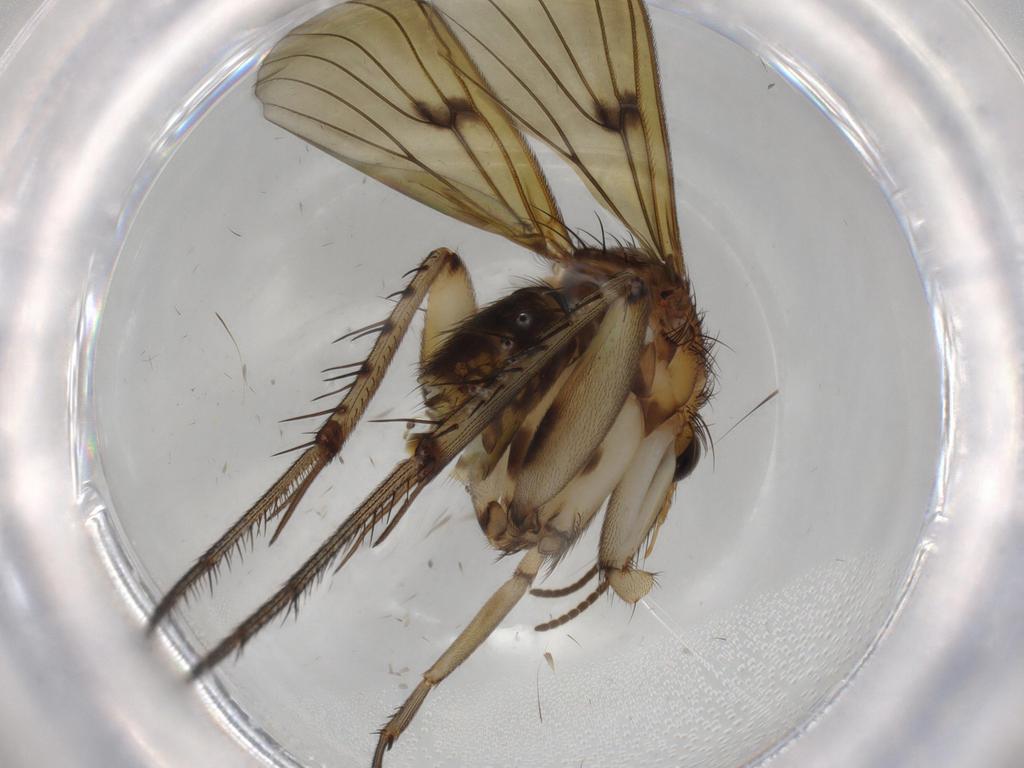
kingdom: Animalia
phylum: Arthropoda
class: Insecta
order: Diptera
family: Cecidomyiidae
